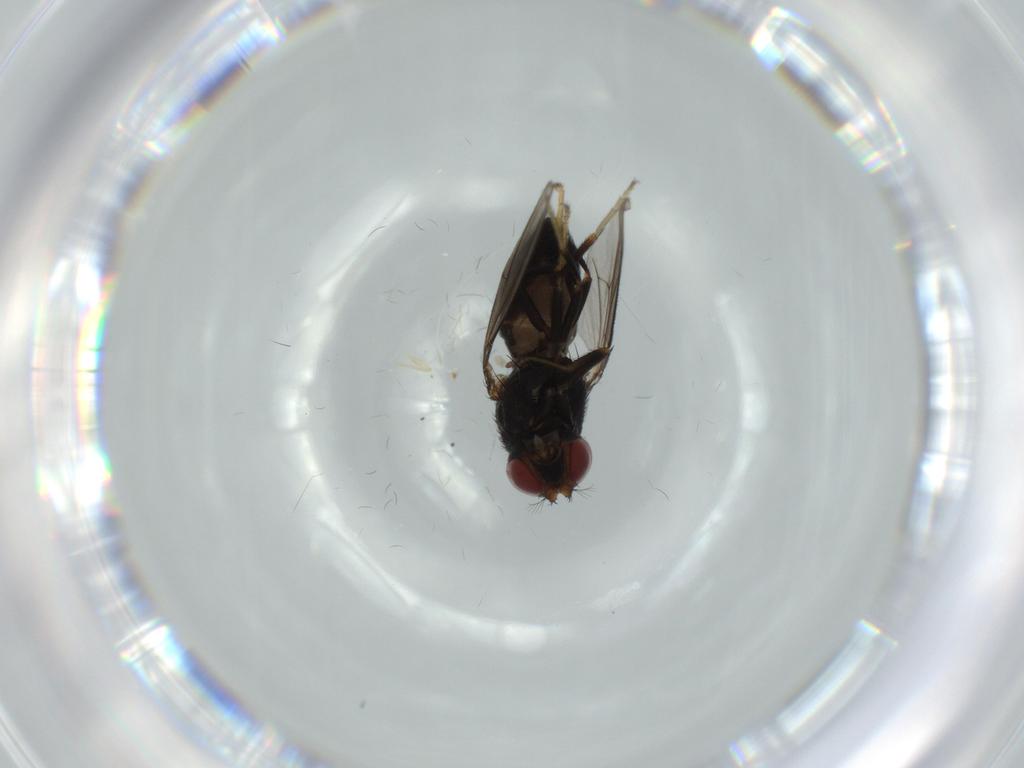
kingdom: Animalia
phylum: Arthropoda
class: Insecta
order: Diptera
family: Chironomidae
